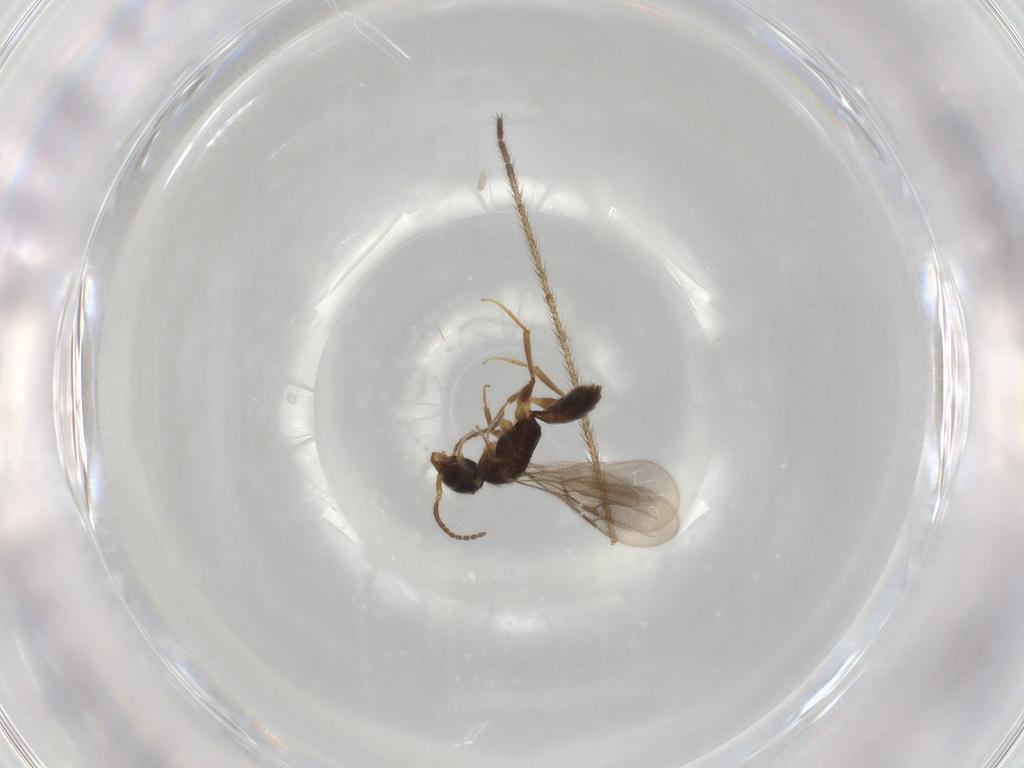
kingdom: Animalia
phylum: Arthropoda
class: Insecta
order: Hymenoptera
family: Bethylidae
